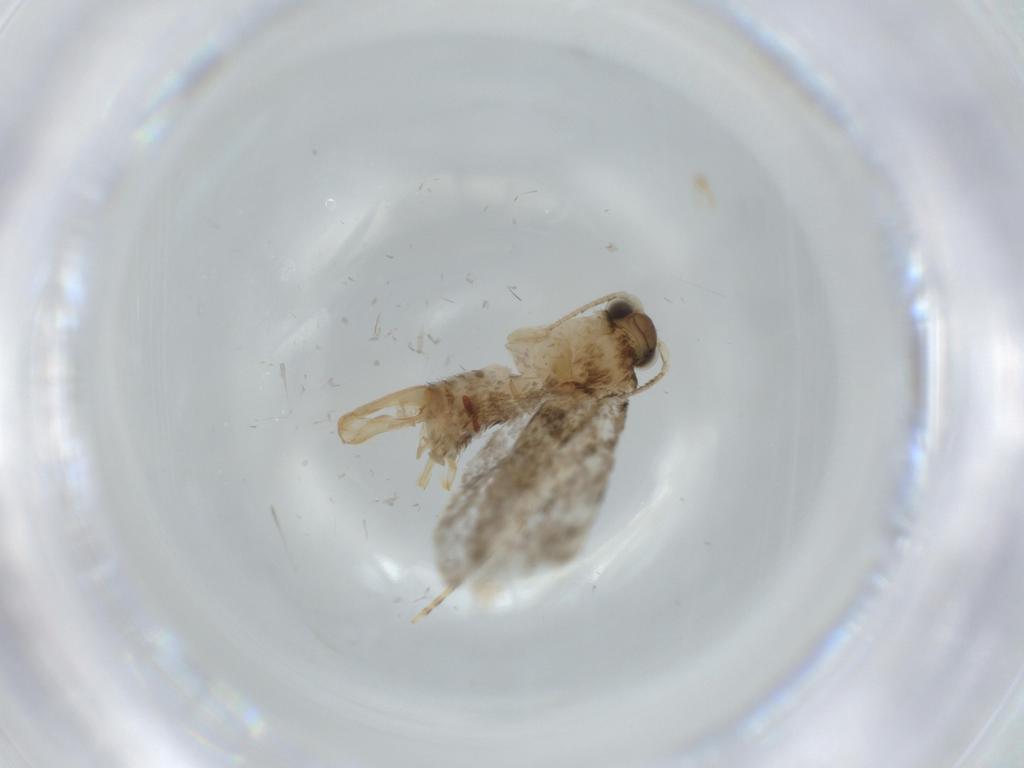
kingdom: Animalia
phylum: Arthropoda
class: Insecta
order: Lepidoptera
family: Tineidae
